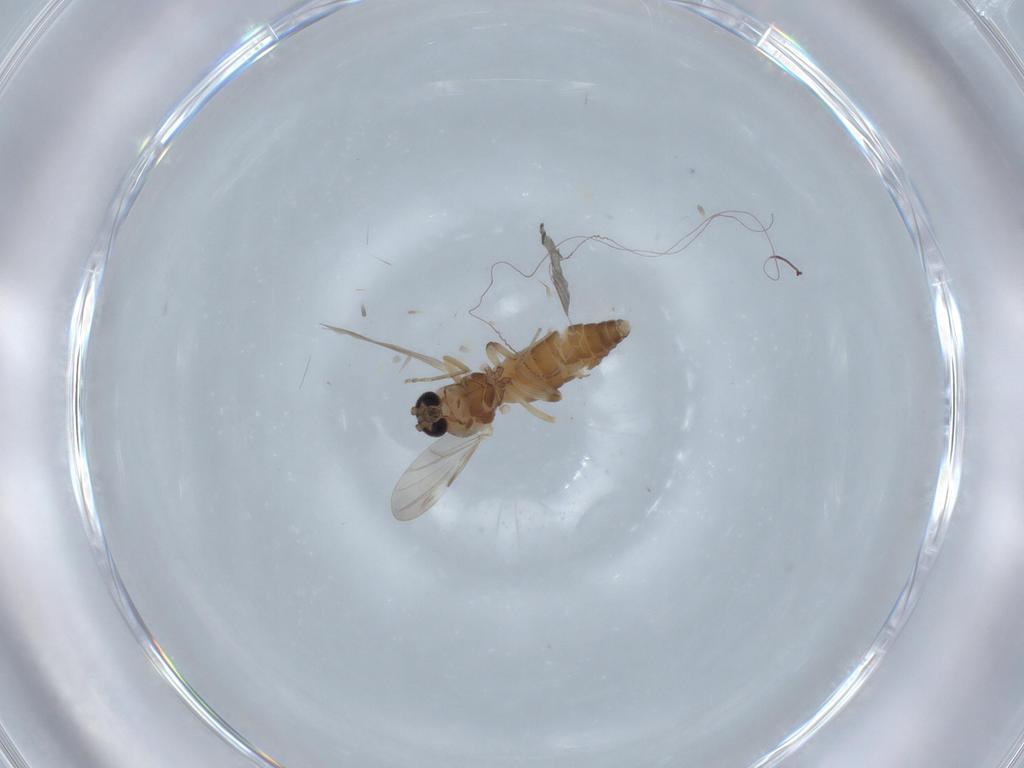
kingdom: Animalia
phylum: Arthropoda
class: Insecta
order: Diptera
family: Ceratopogonidae
